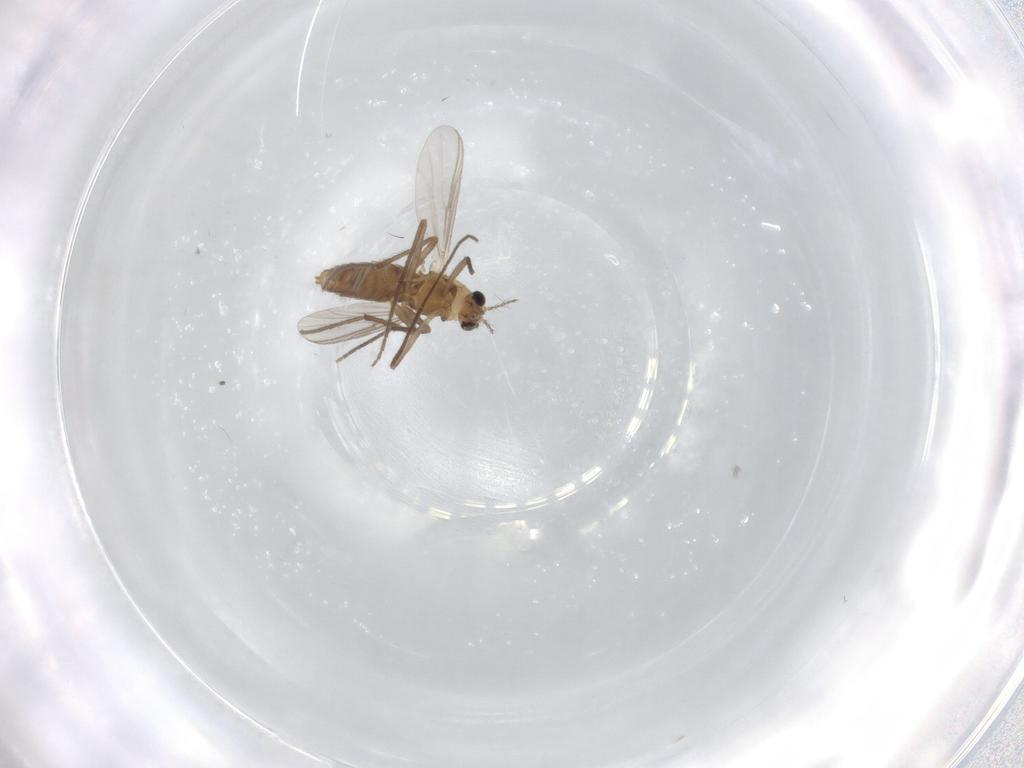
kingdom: Animalia
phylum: Arthropoda
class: Insecta
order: Diptera
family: Chironomidae
